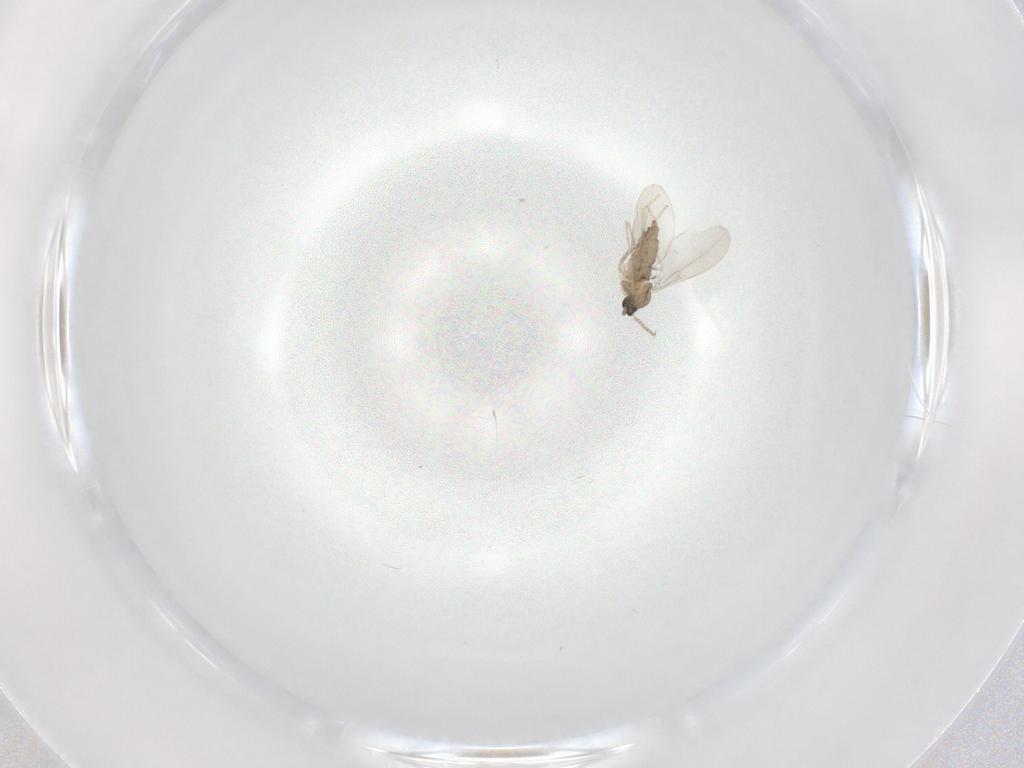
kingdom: Animalia
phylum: Arthropoda
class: Insecta
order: Diptera
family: Cecidomyiidae
